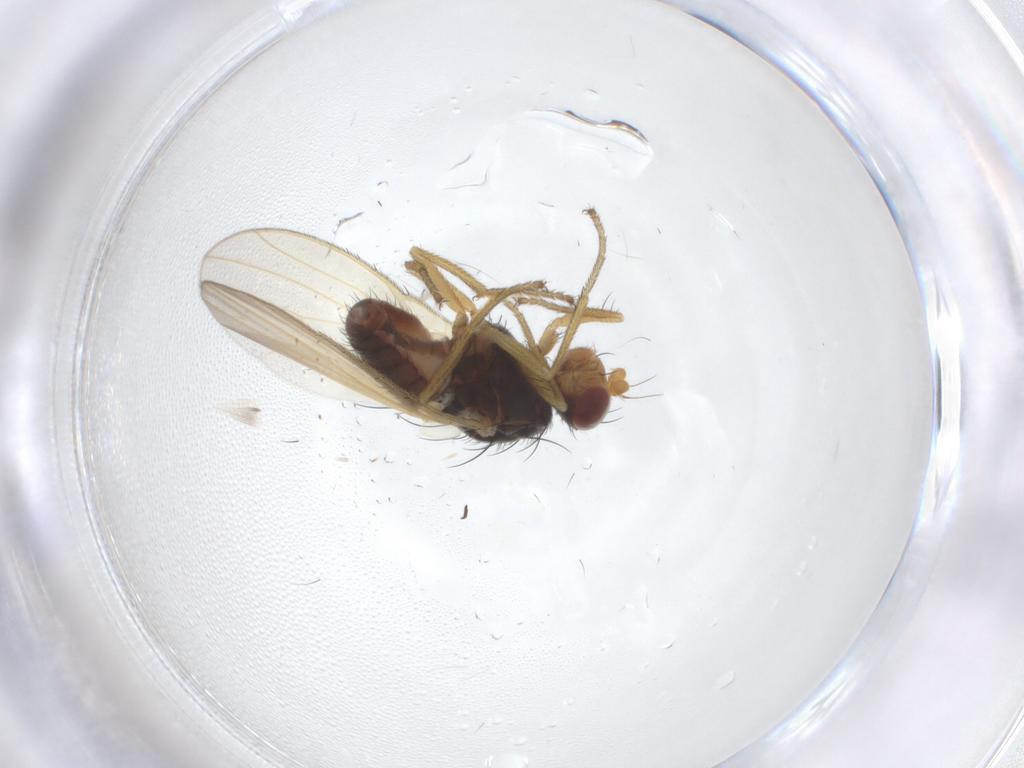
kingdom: Animalia
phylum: Arthropoda
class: Insecta
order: Diptera
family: Heleomyzidae
